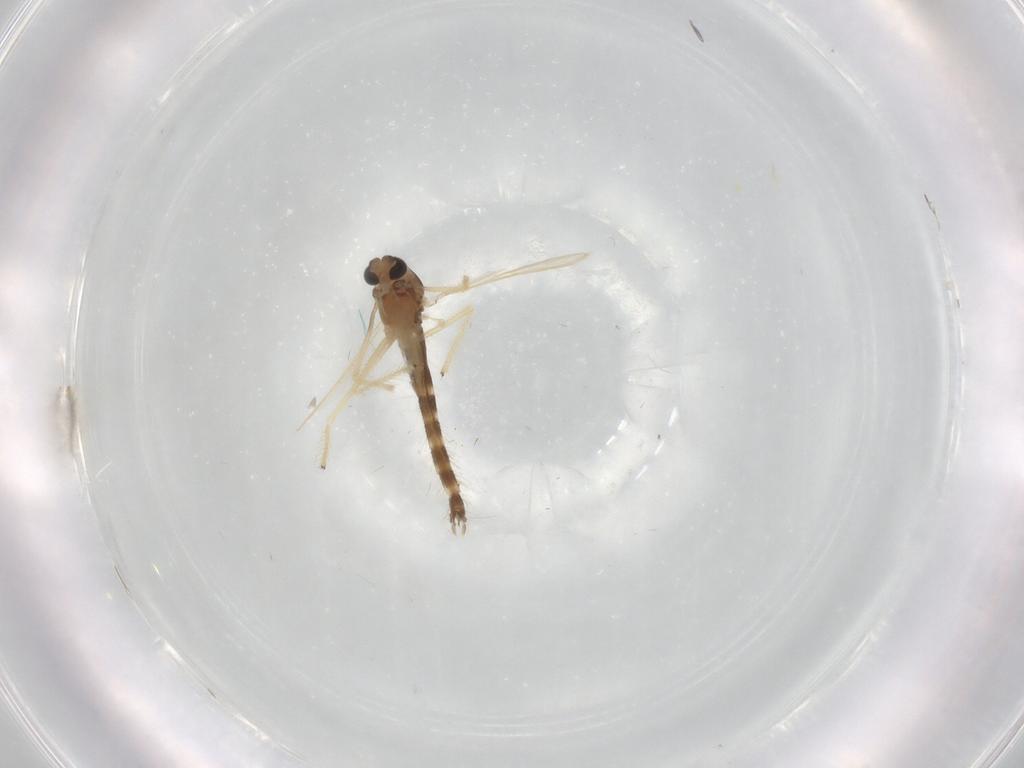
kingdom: Animalia
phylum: Arthropoda
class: Insecta
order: Diptera
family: Chironomidae
